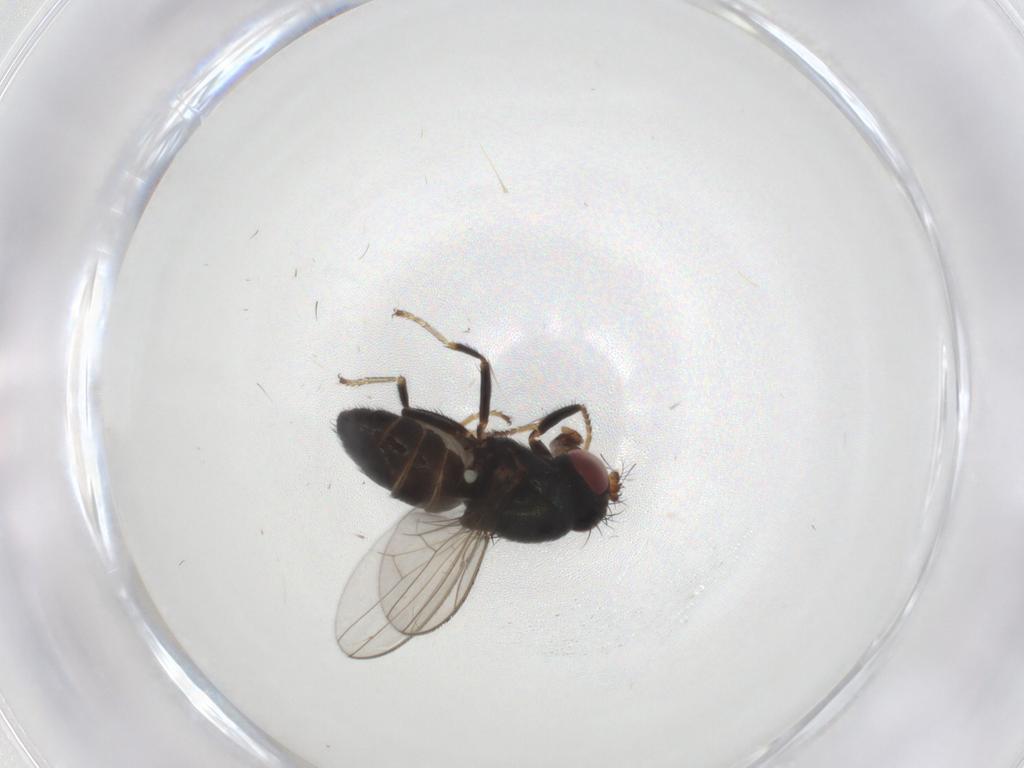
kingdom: Animalia
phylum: Arthropoda
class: Insecta
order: Diptera
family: Ephydridae
